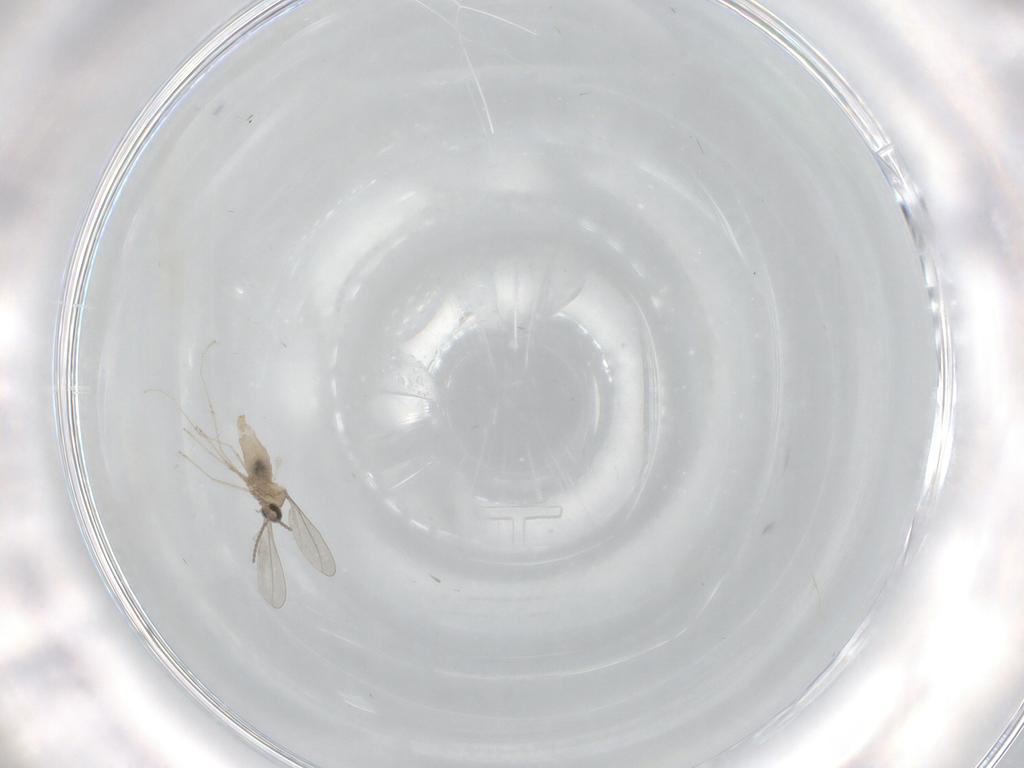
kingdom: Animalia
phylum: Arthropoda
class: Insecta
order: Diptera
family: Cecidomyiidae
